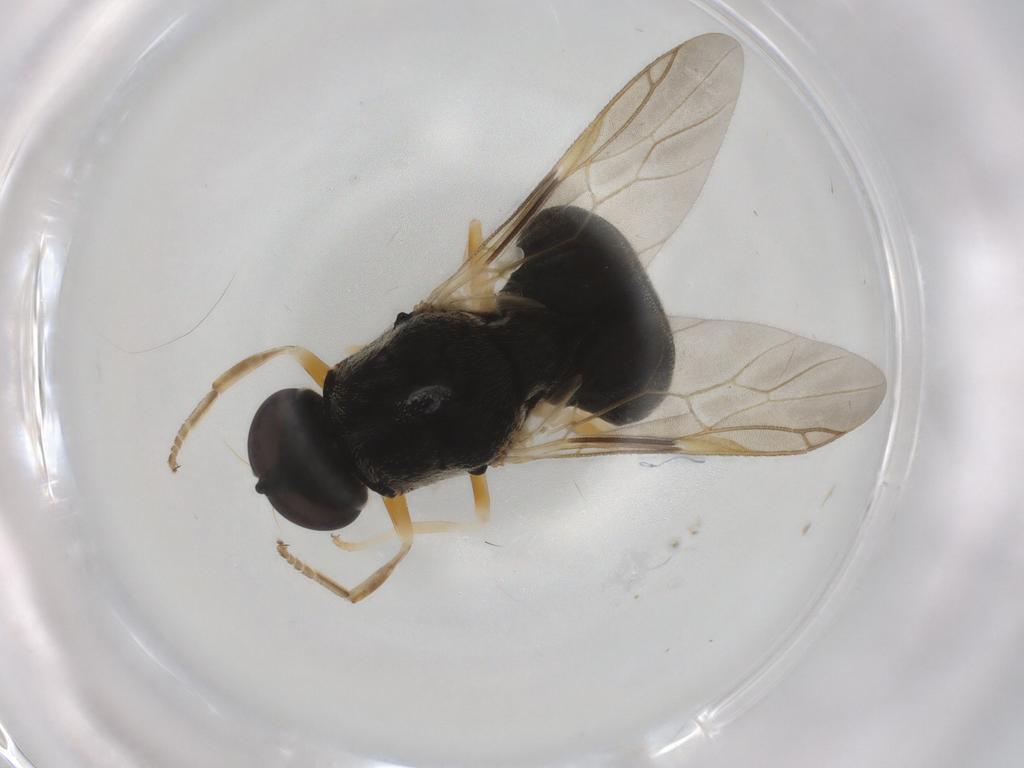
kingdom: Animalia
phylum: Arthropoda
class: Insecta
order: Diptera
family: Stratiomyidae
